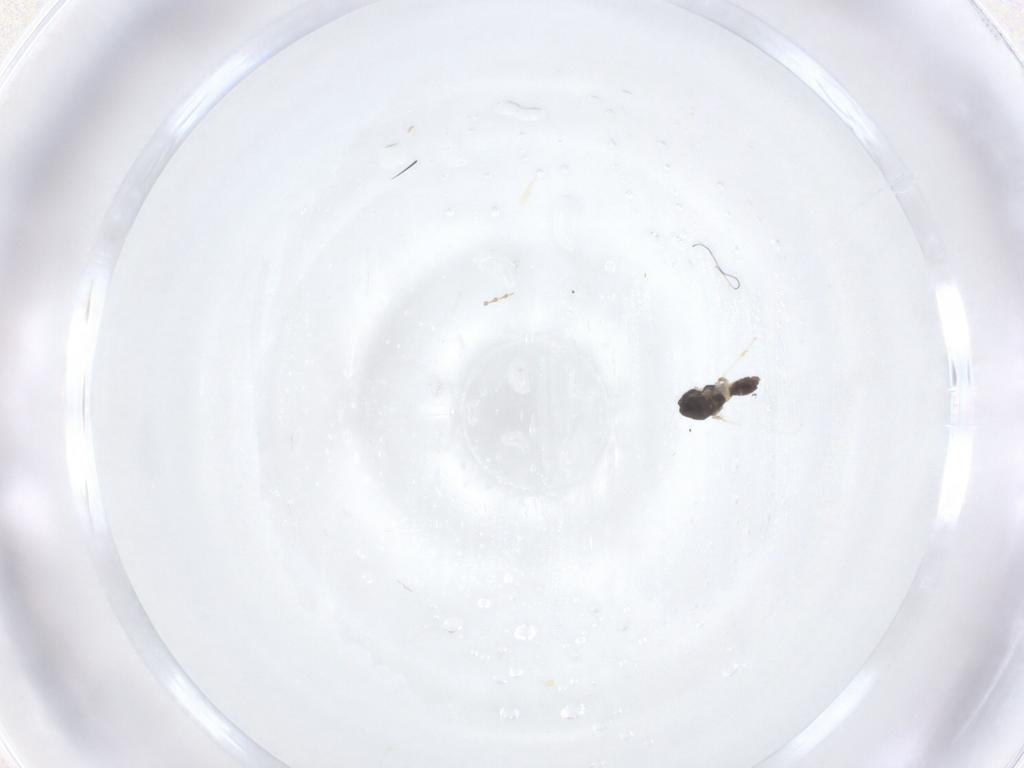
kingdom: Animalia
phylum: Arthropoda
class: Insecta
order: Diptera
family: Cecidomyiidae
